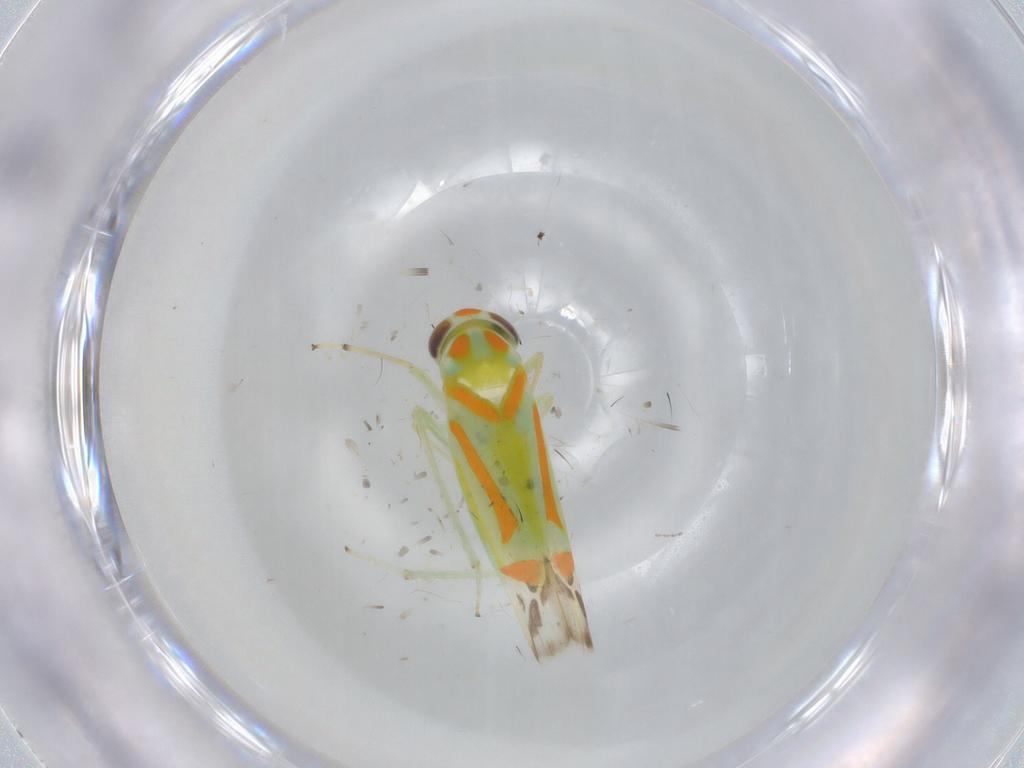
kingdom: Animalia
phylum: Arthropoda
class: Insecta
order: Hemiptera
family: Cicadellidae
